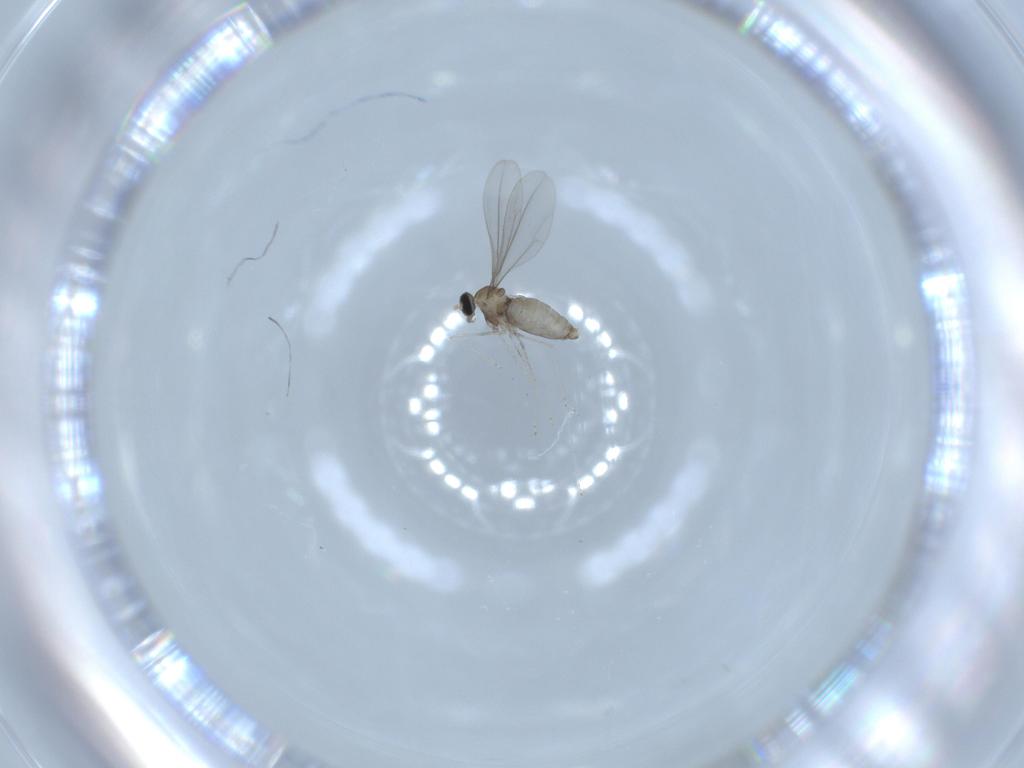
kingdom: Animalia
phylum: Arthropoda
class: Insecta
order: Diptera
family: Cecidomyiidae
